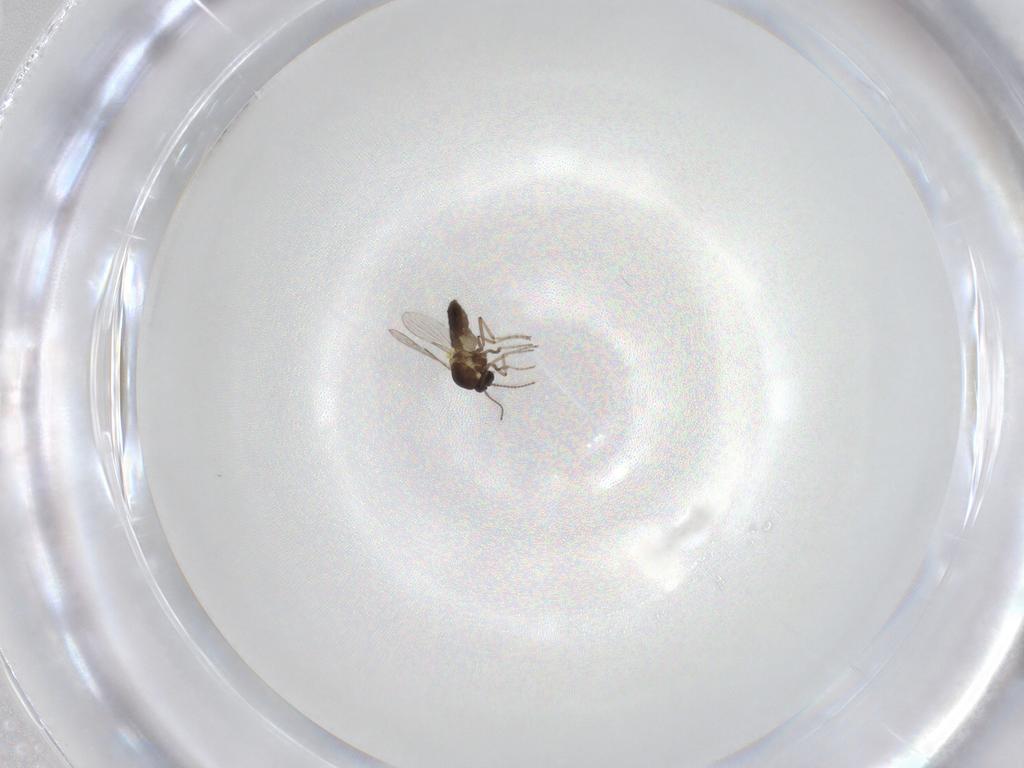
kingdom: Animalia
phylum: Arthropoda
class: Insecta
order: Diptera
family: Ceratopogonidae
